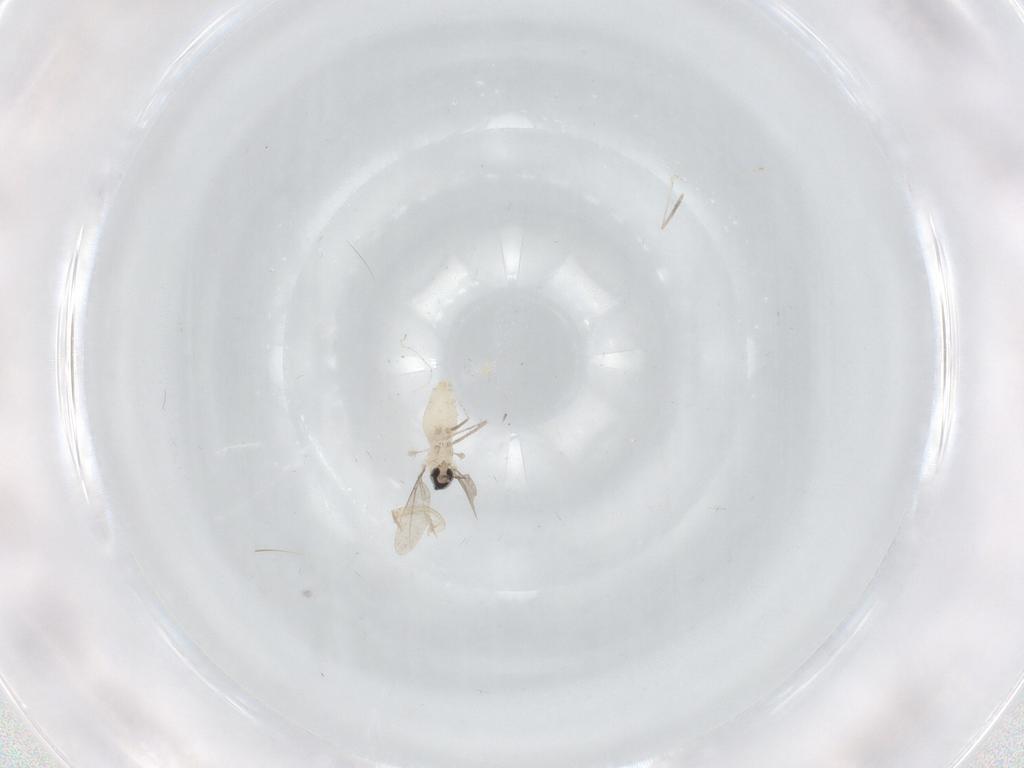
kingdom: Animalia
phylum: Arthropoda
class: Insecta
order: Diptera
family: Cecidomyiidae
